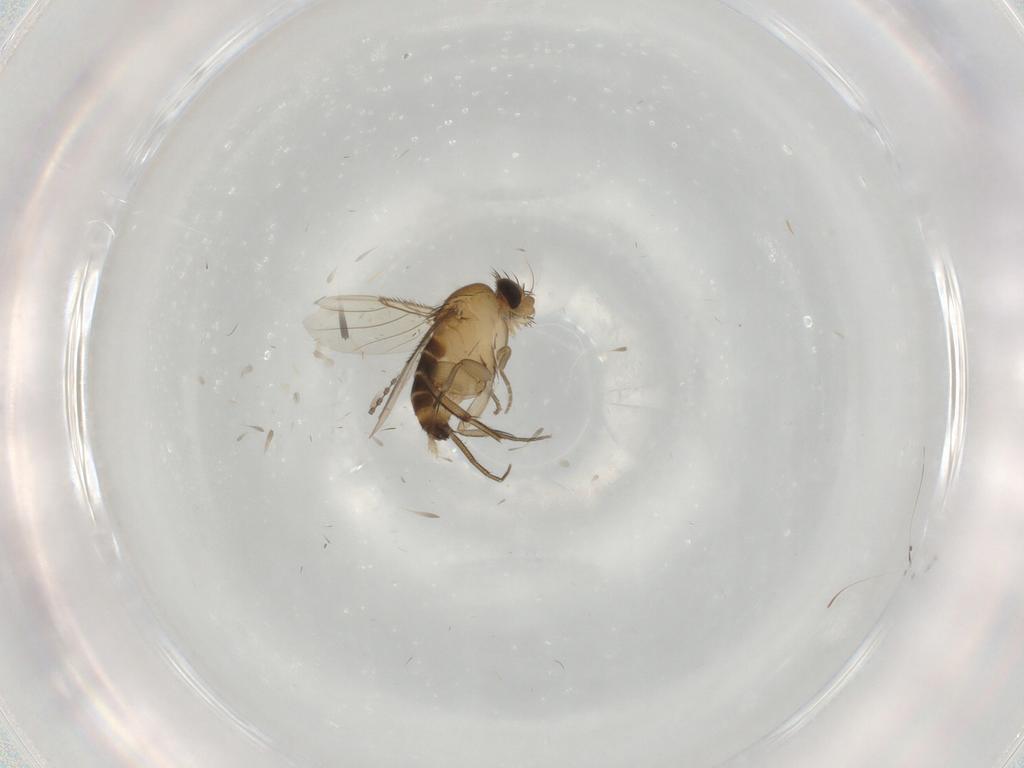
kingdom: Animalia
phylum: Arthropoda
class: Insecta
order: Diptera
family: Phoridae
